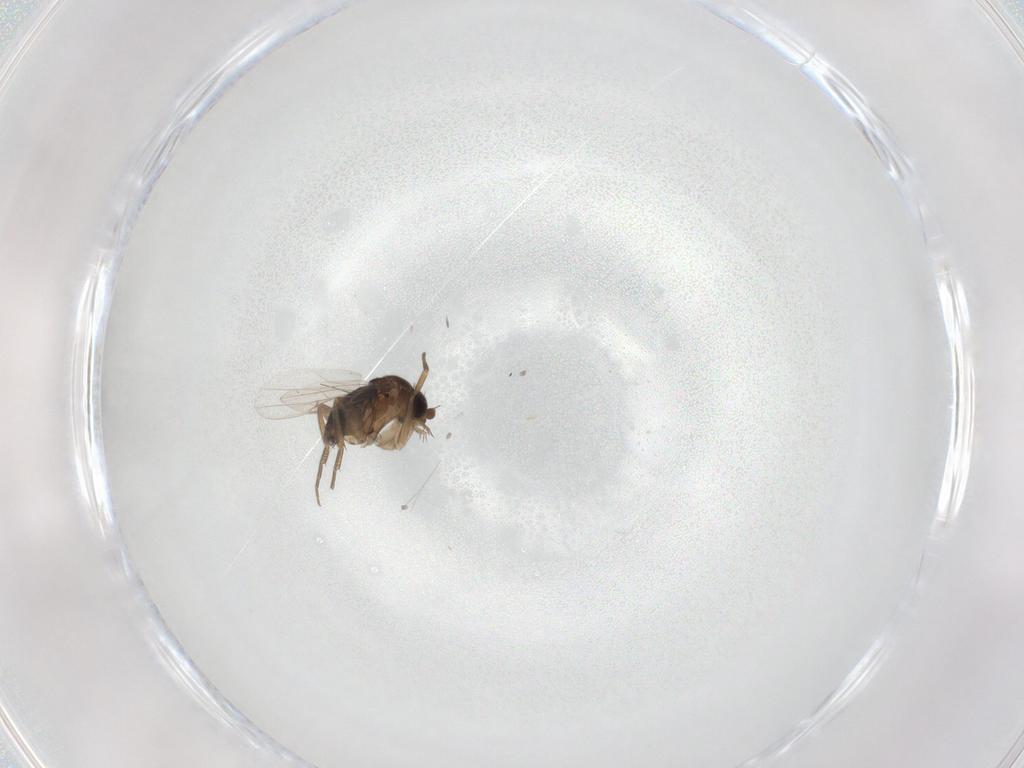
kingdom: Animalia
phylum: Arthropoda
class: Insecta
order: Diptera
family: Phoridae
